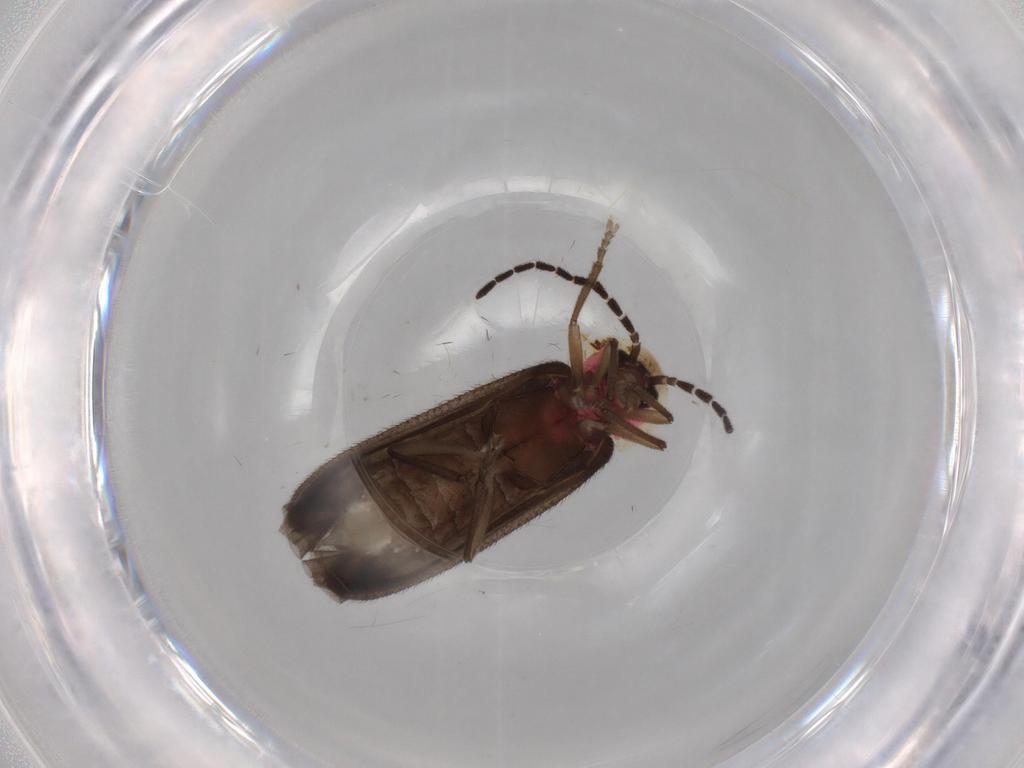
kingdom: Animalia
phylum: Arthropoda
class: Insecta
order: Coleoptera
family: Lampyridae
